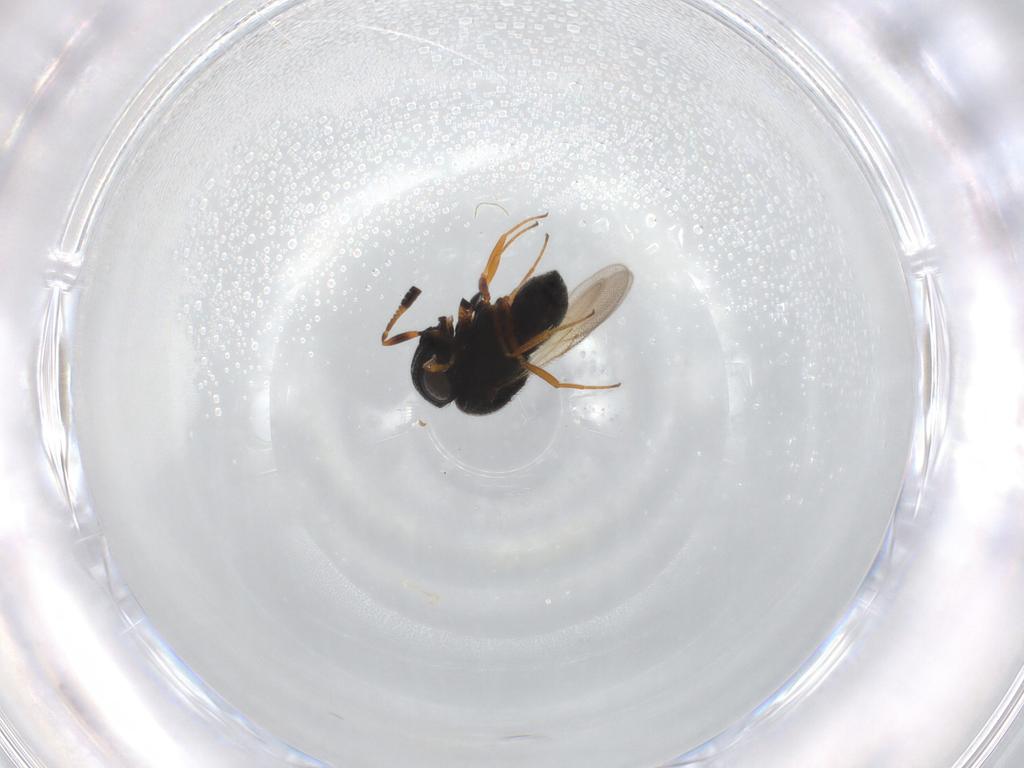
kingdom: Animalia
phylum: Arthropoda
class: Insecta
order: Hymenoptera
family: Scelionidae
